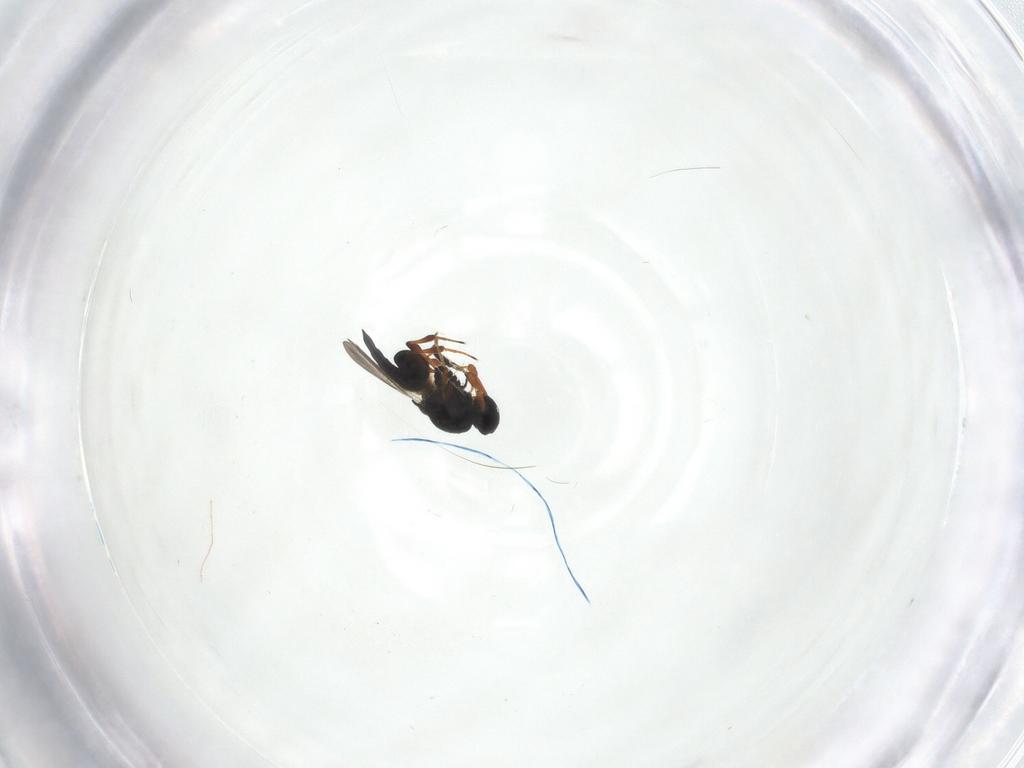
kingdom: Animalia
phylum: Arthropoda
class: Insecta
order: Hymenoptera
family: Platygastridae
